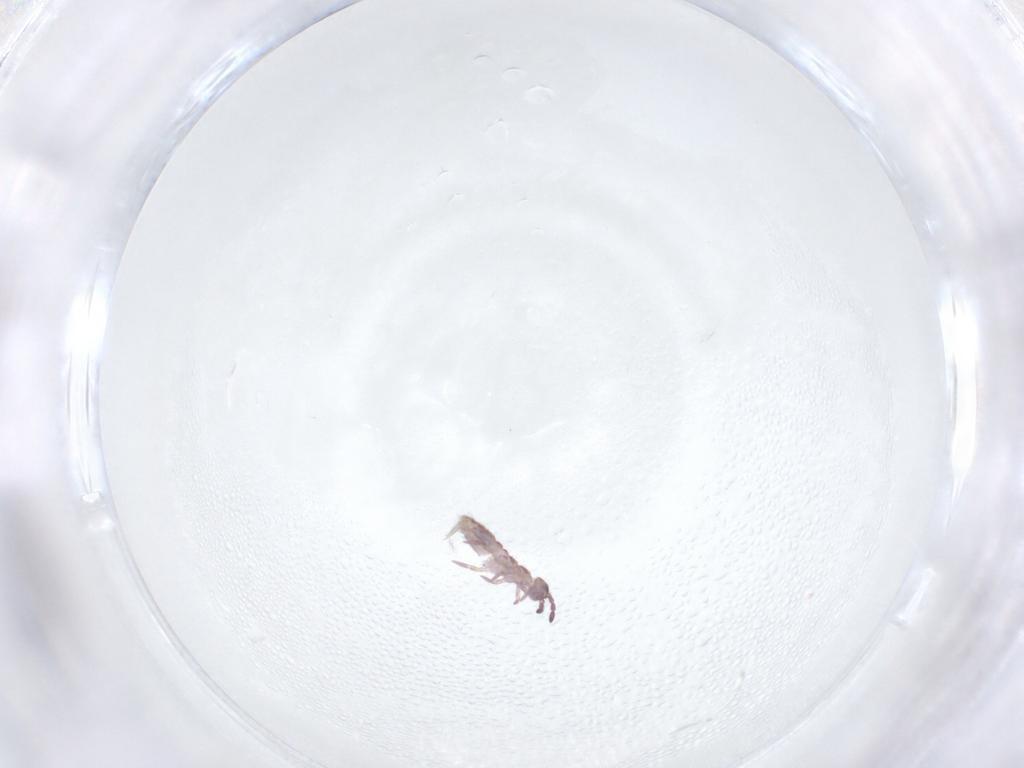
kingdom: Animalia
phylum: Arthropoda
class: Collembola
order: Entomobryomorpha
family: Isotomidae
